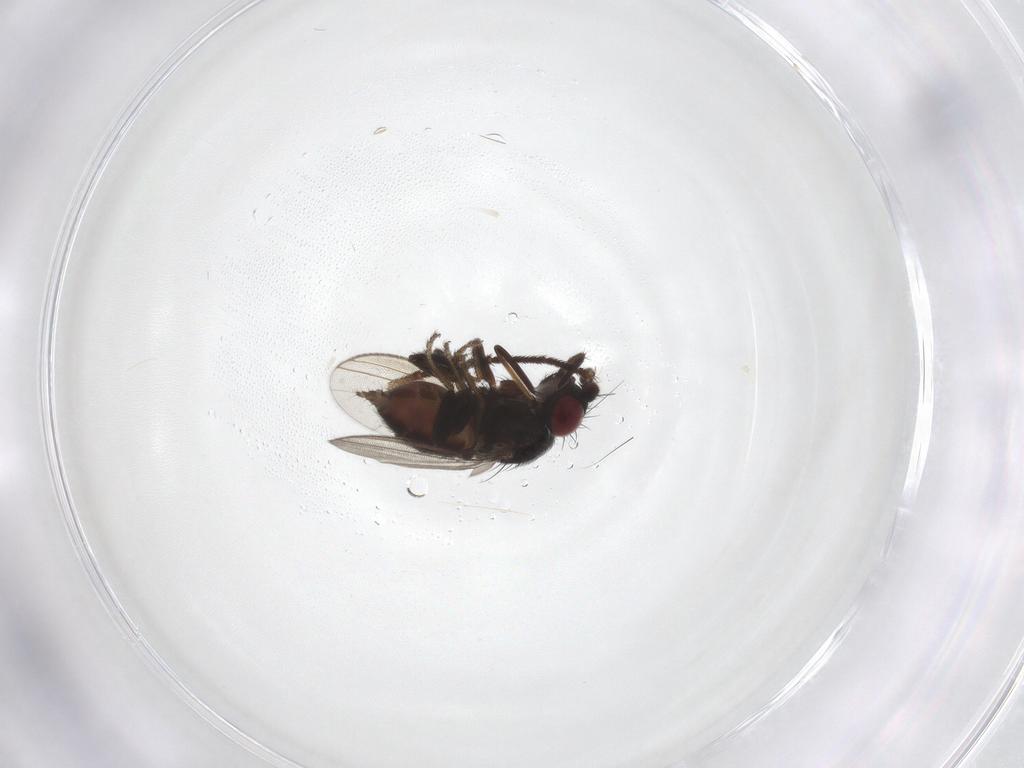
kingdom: Animalia
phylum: Arthropoda
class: Insecta
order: Diptera
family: Milichiidae
